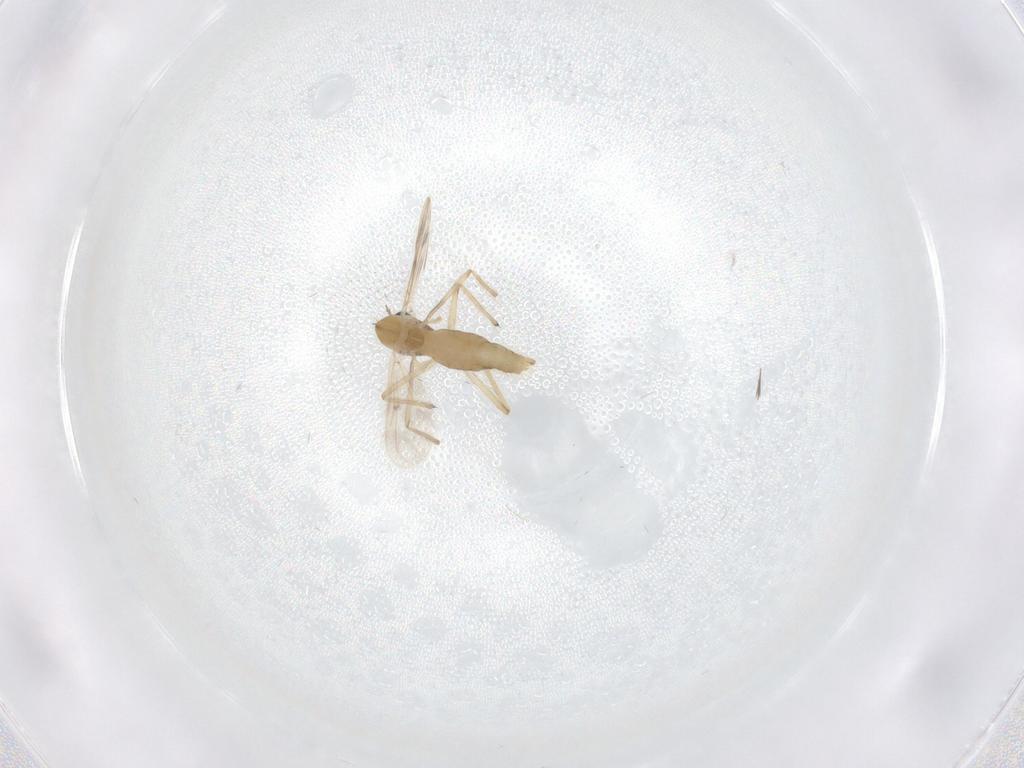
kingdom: Animalia
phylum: Arthropoda
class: Insecta
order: Diptera
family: Chironomidae
